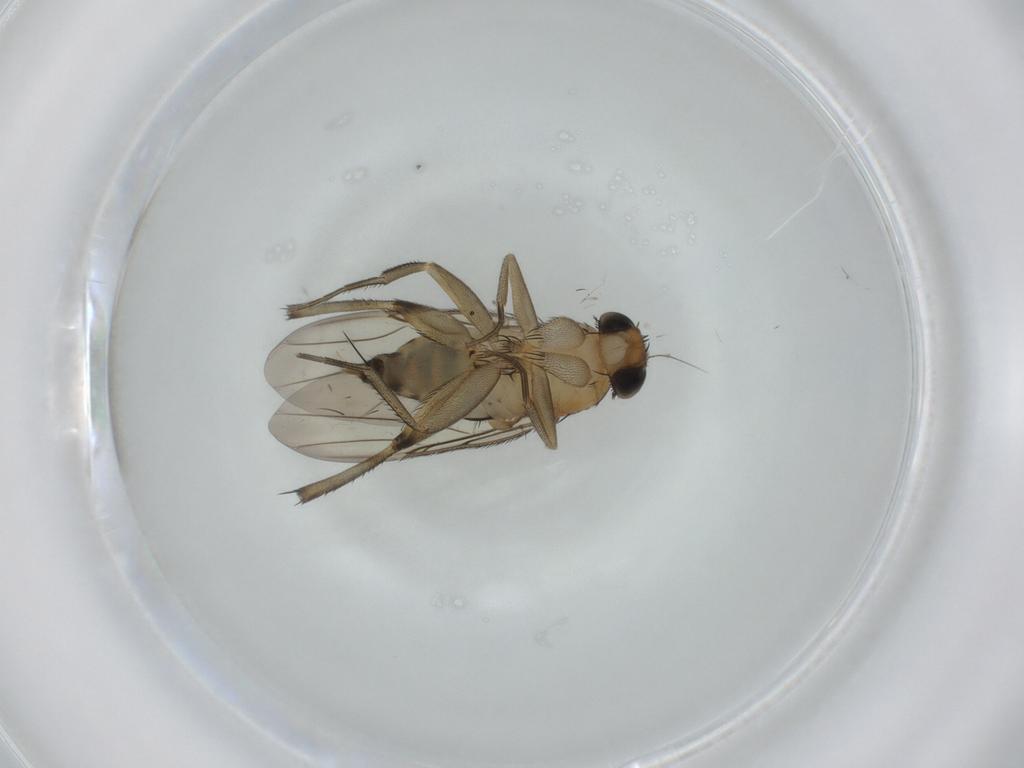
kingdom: Animalia
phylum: Arthropoda
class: Insecta
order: Diptera
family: Phoridae
